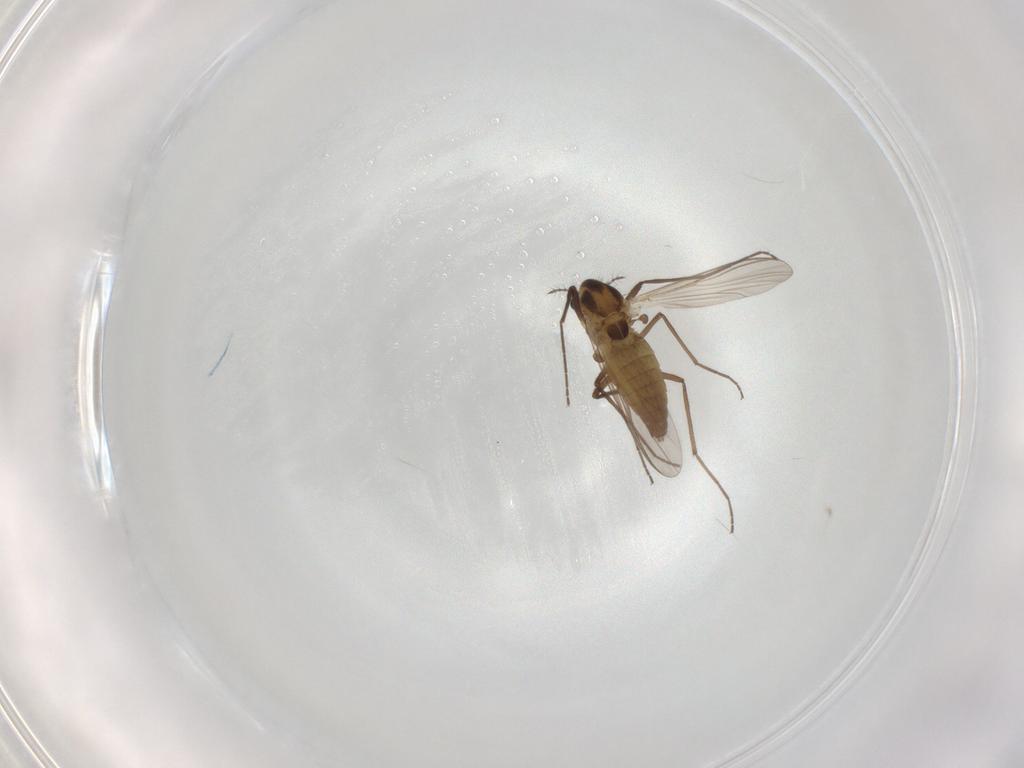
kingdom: Animalia
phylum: Arthropoda
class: Insecta
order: Diptera
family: Chironomidae
